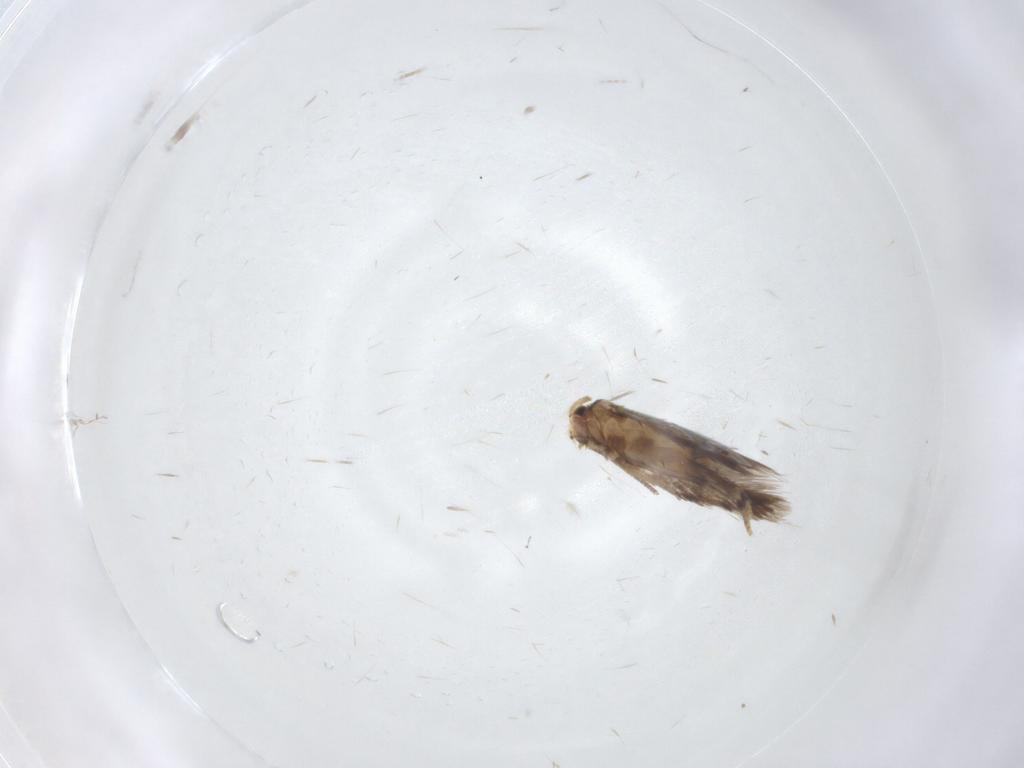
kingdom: Animalia
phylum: Arthropoda
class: Insecta
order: Lepidoptera
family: Nepticulidae
